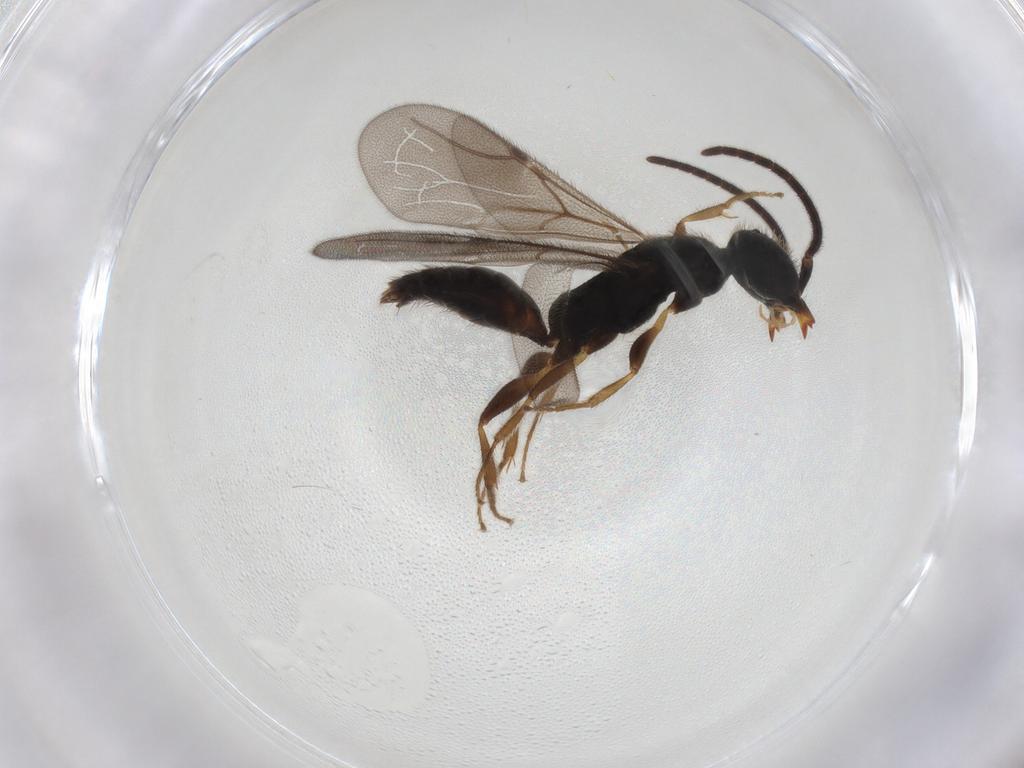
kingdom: Animalia
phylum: Arthropoda
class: Insecta
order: Hymenoptera
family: Bethylidae
